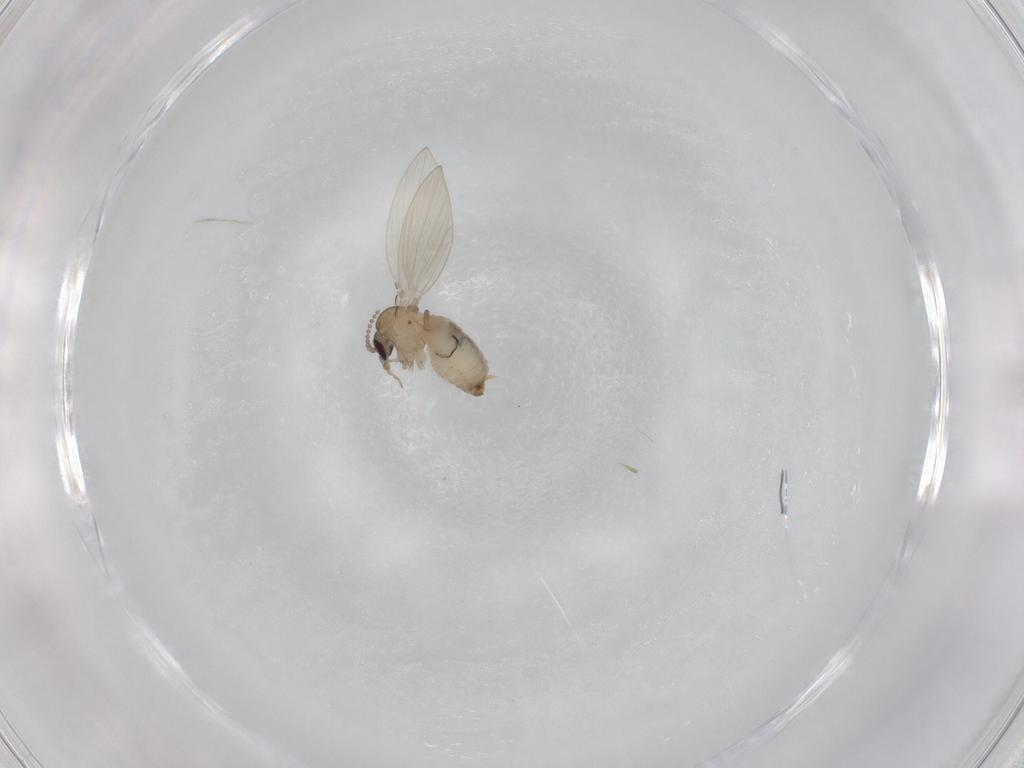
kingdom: Animalia
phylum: Arthropoda
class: Insecta
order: Diptera
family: Psychodidae
